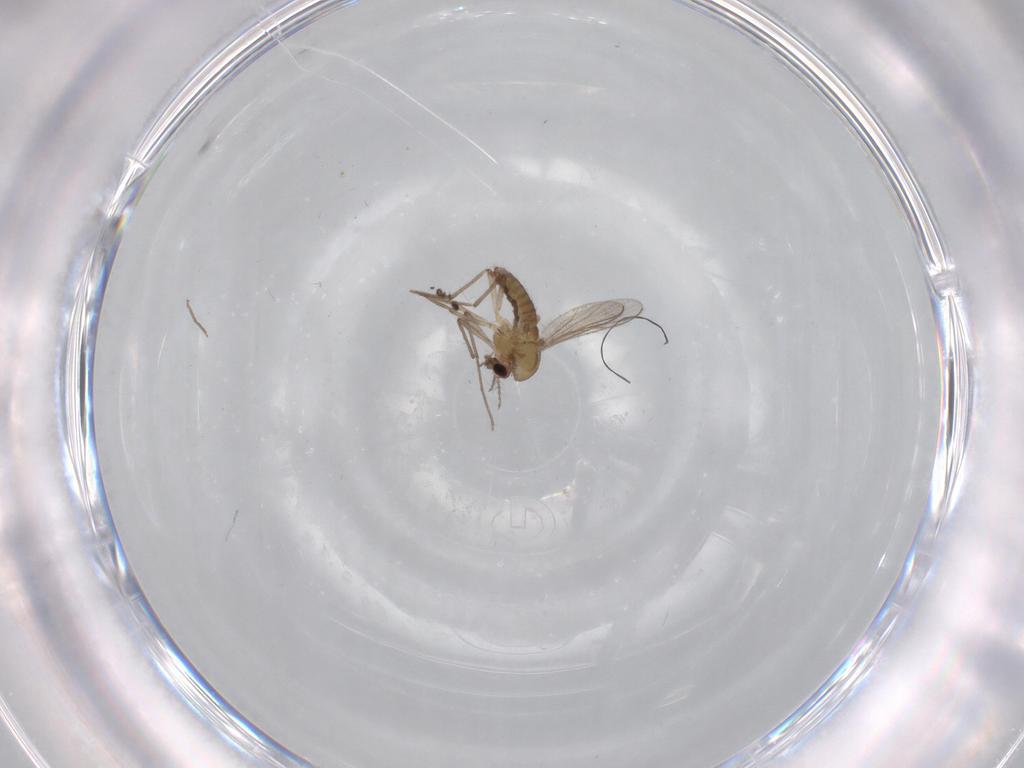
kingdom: Animalia
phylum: Arthropoda
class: Insecta
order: Diptera
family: Chironomidae
